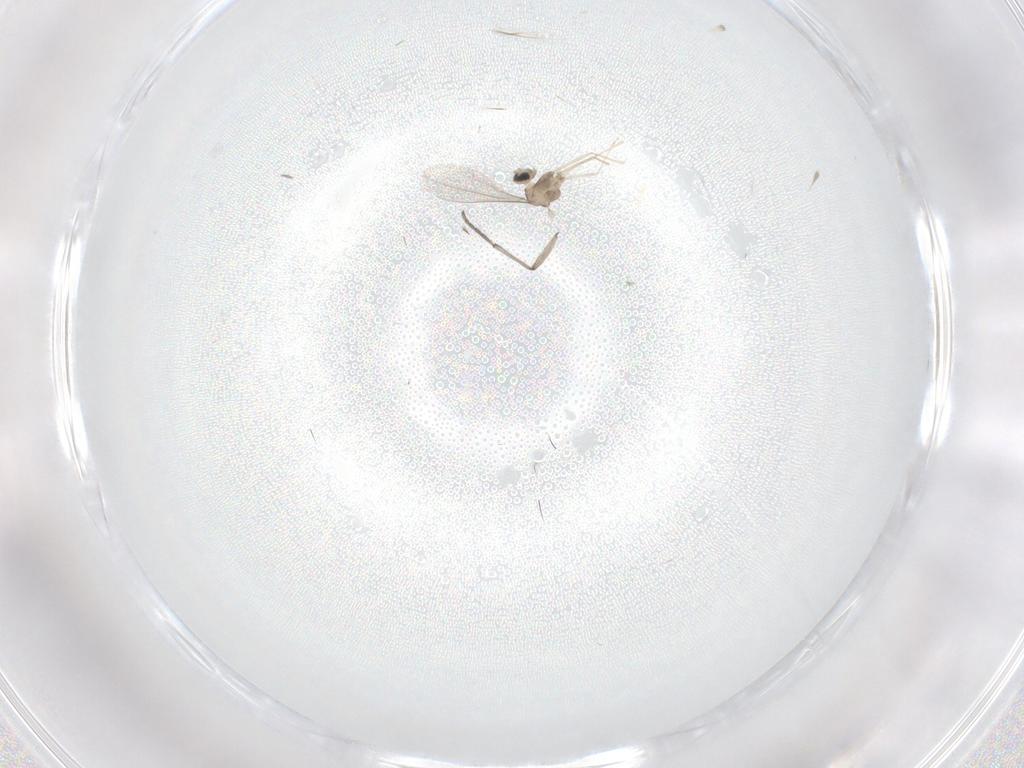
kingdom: Animalia
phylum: Arthropoda
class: Insecta
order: Diptera
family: Sciaridae
